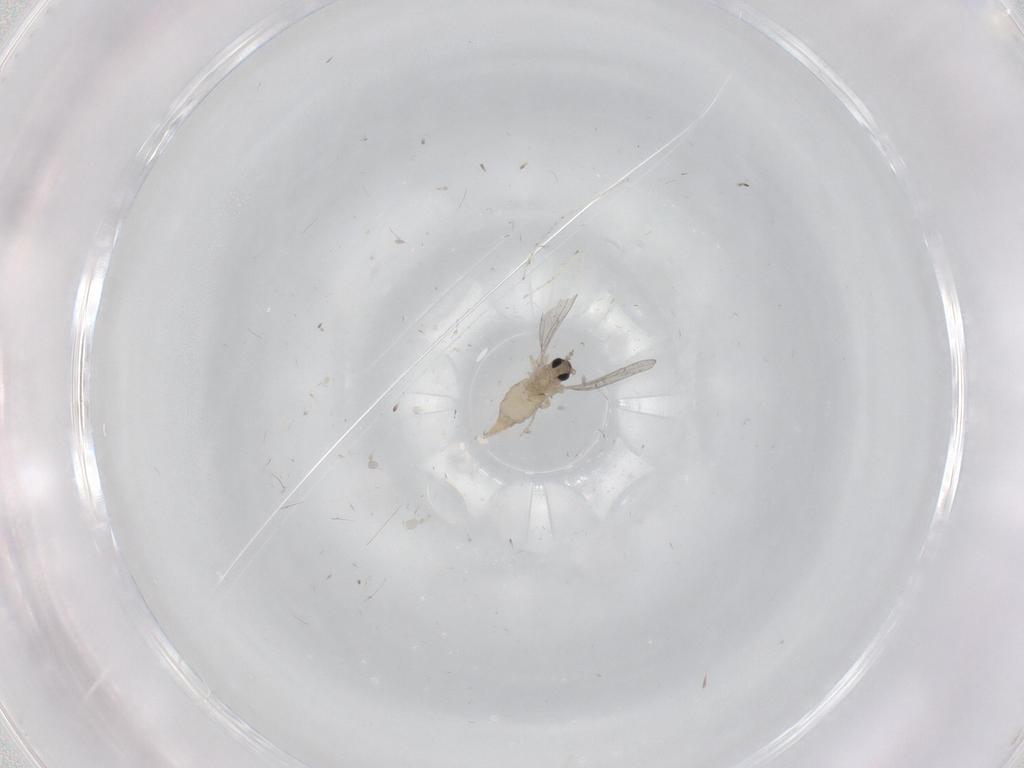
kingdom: Animalia
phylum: Arthropoda
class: Insecta
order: Diptera
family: Cecidomyiidae
